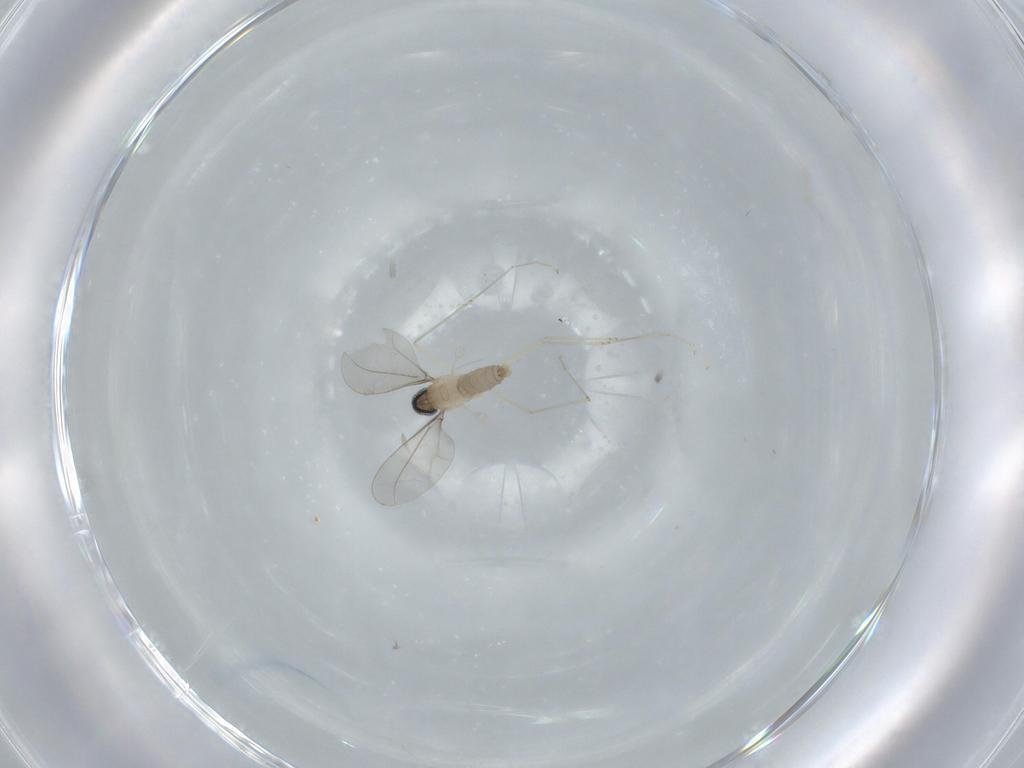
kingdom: Animalia
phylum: Arthropoda
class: Insecta
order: Diptera
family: Cecidomyiidae
